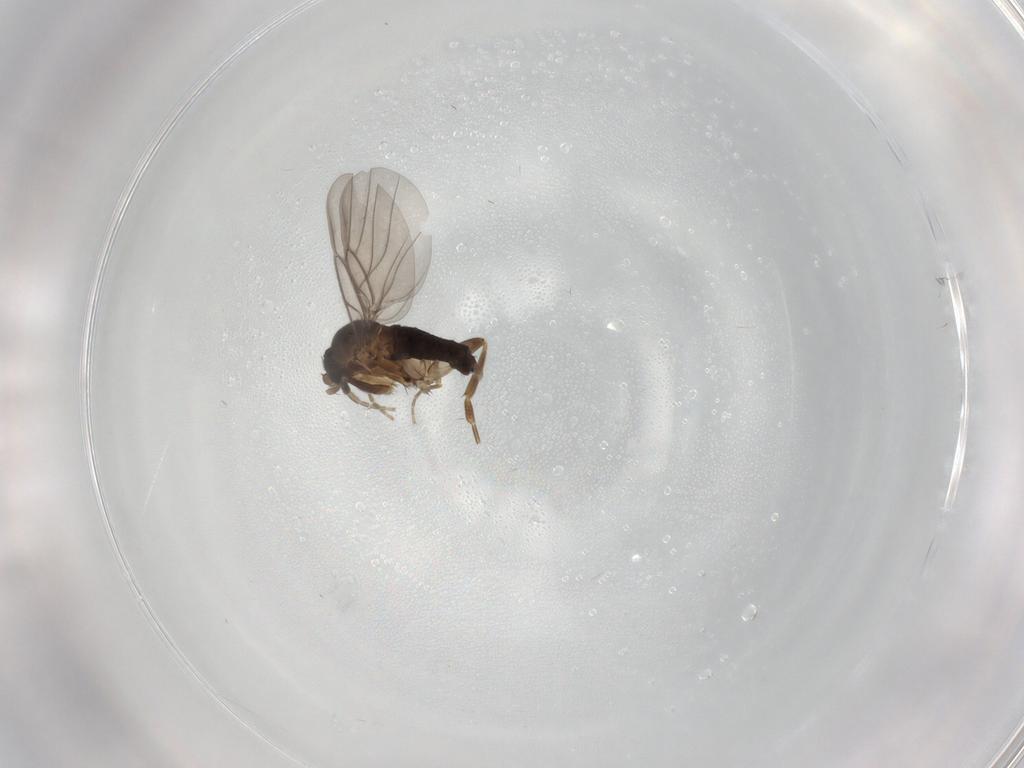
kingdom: Animalia
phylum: Arthropoda
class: Insecta
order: Diptera
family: Phoridae
